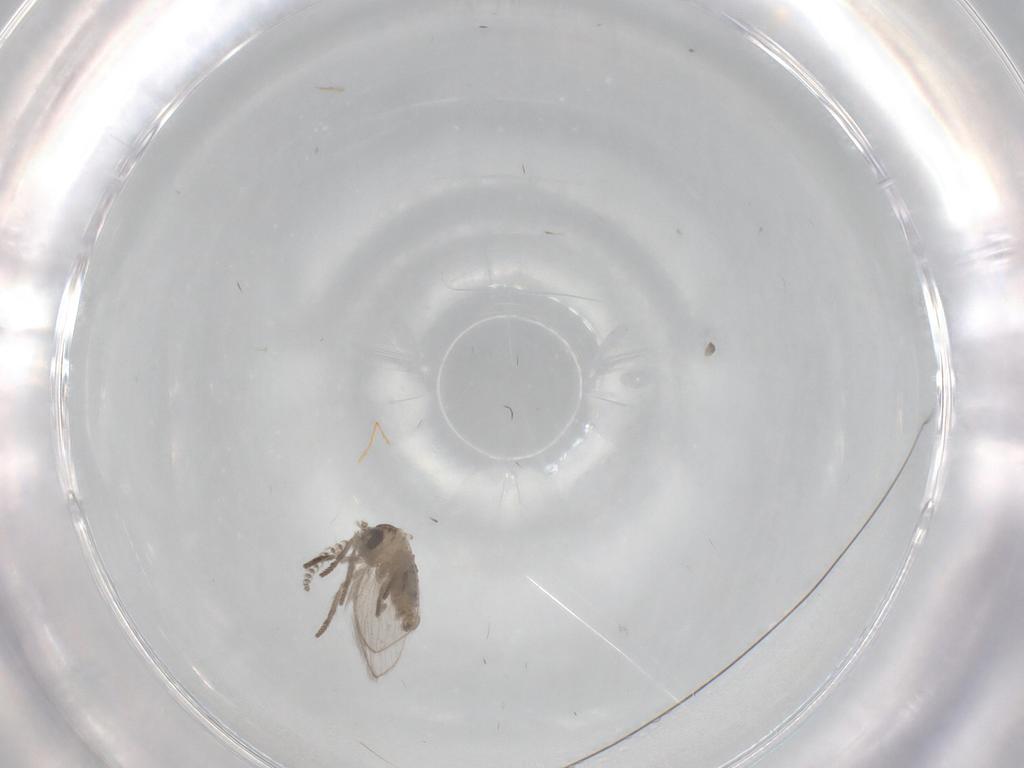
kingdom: Animalia
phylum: Arthropoda
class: Insecta
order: Diptera
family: Psychodidae
